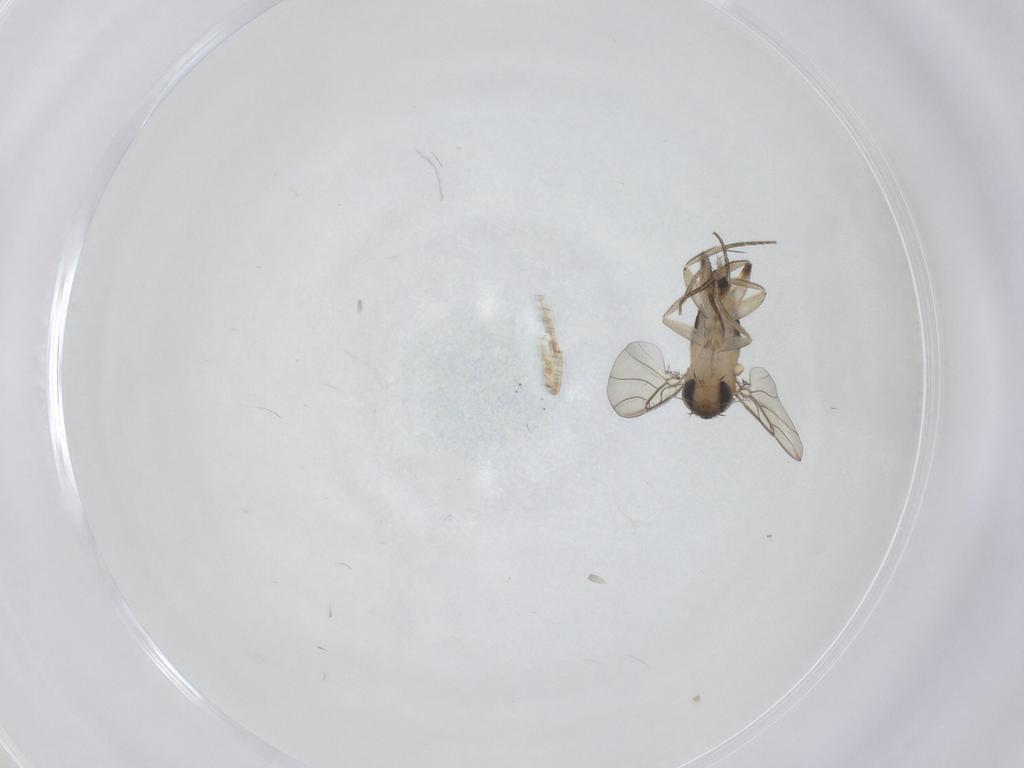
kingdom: Animalia
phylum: Arthropoda
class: Insecta
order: Diptera
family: Phoridae
